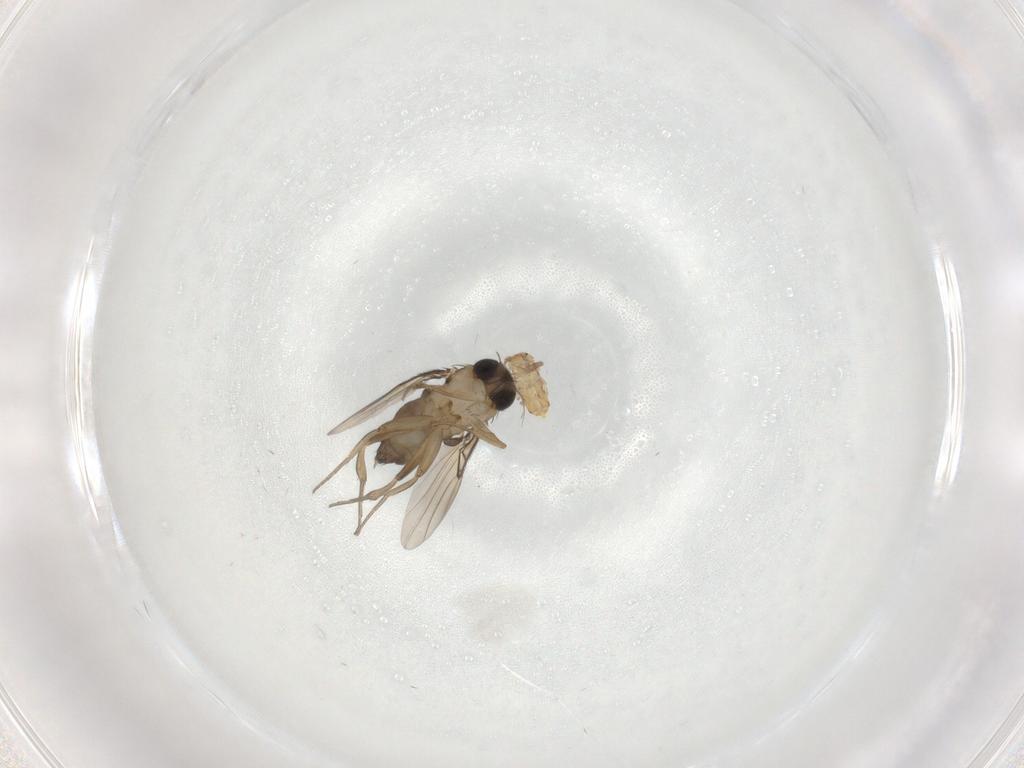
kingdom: Animalia
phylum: Arthropoda
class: Insecta
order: Diptera
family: Phoridae
